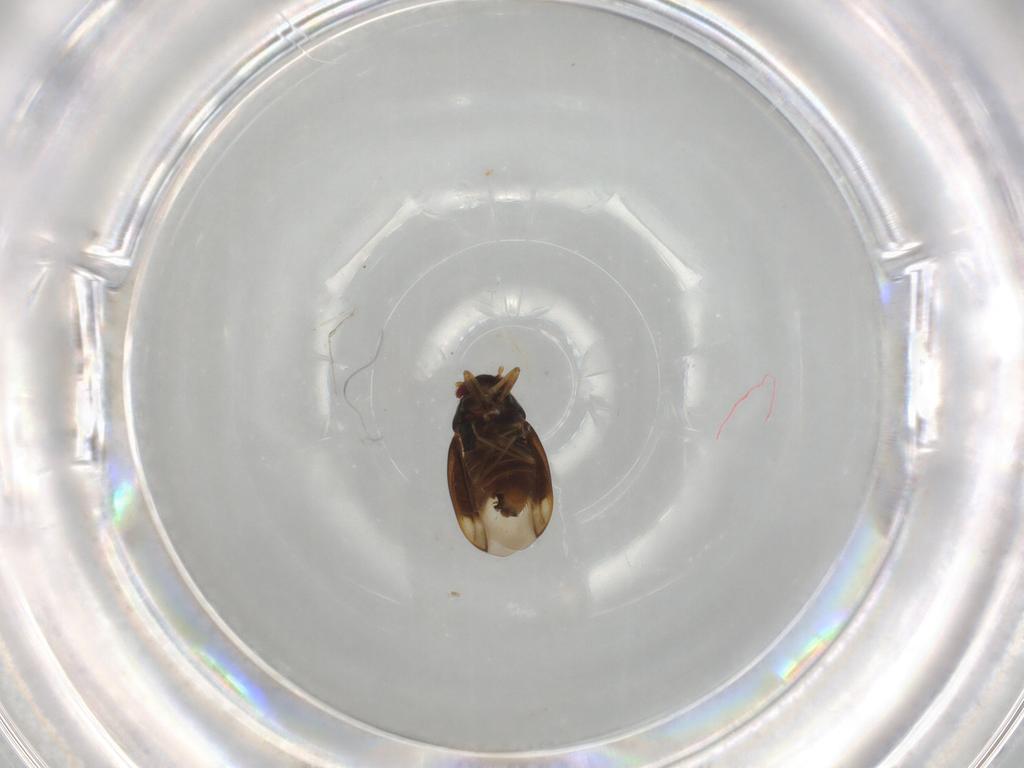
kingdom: Animalia
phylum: Arthropoda
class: Insecta
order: Hemiptera
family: Schizopteridae
